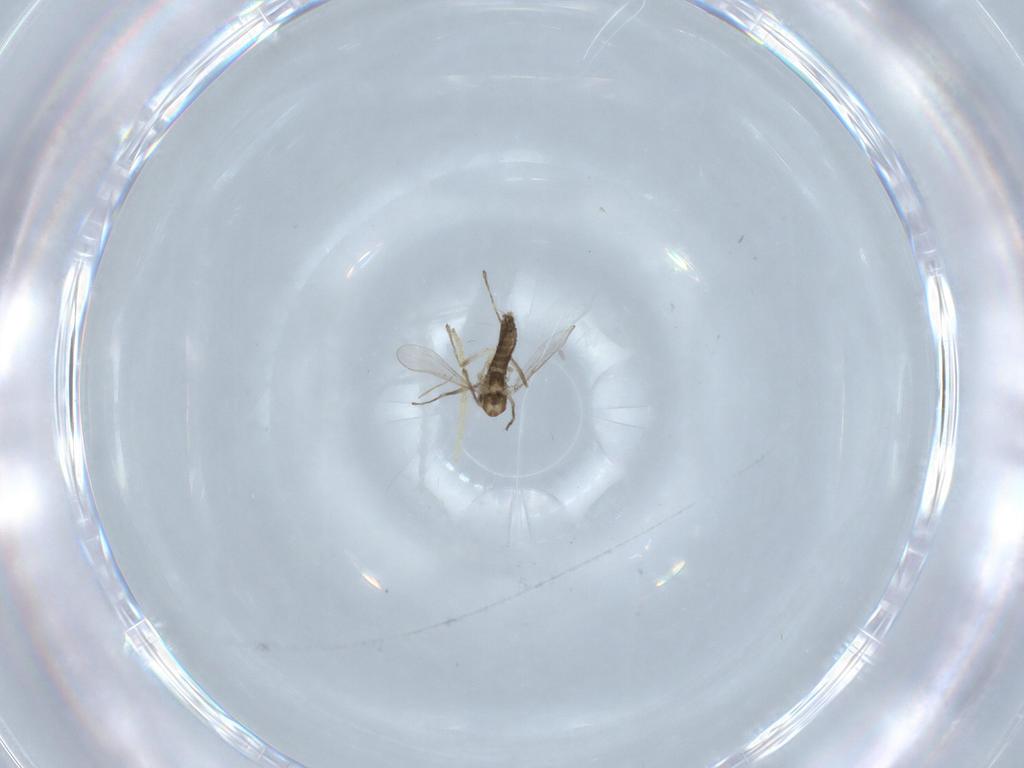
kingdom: Animalia
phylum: Arthropoda
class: Insecta
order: Diptera
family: Chironomidae
